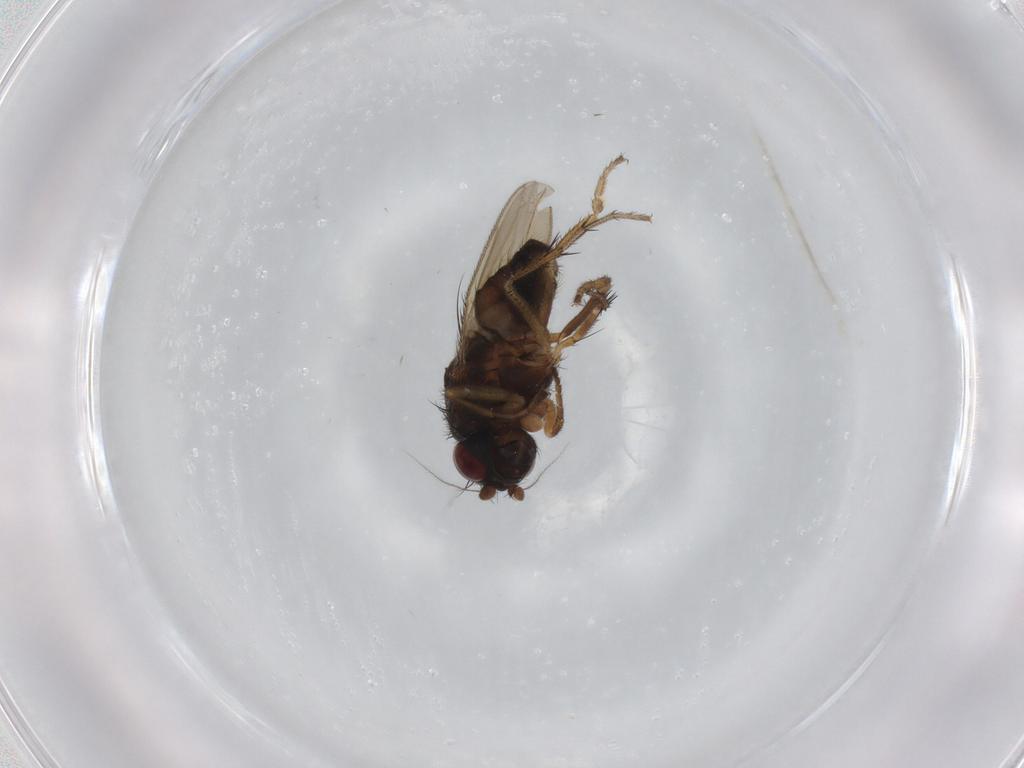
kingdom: Animalia
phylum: Arthropoda
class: Insecta
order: Diptera
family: Sphaeroceridae
